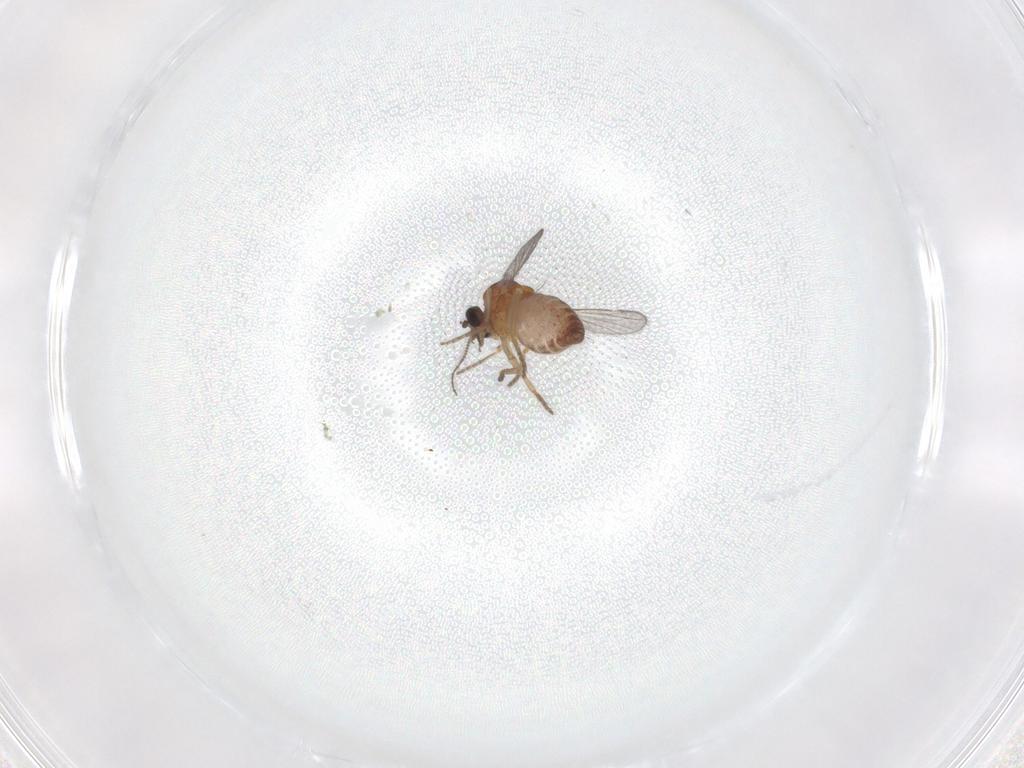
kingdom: Animalia
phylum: Arthropoda
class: Insecta
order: Diptera
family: Ceratopogonidae
